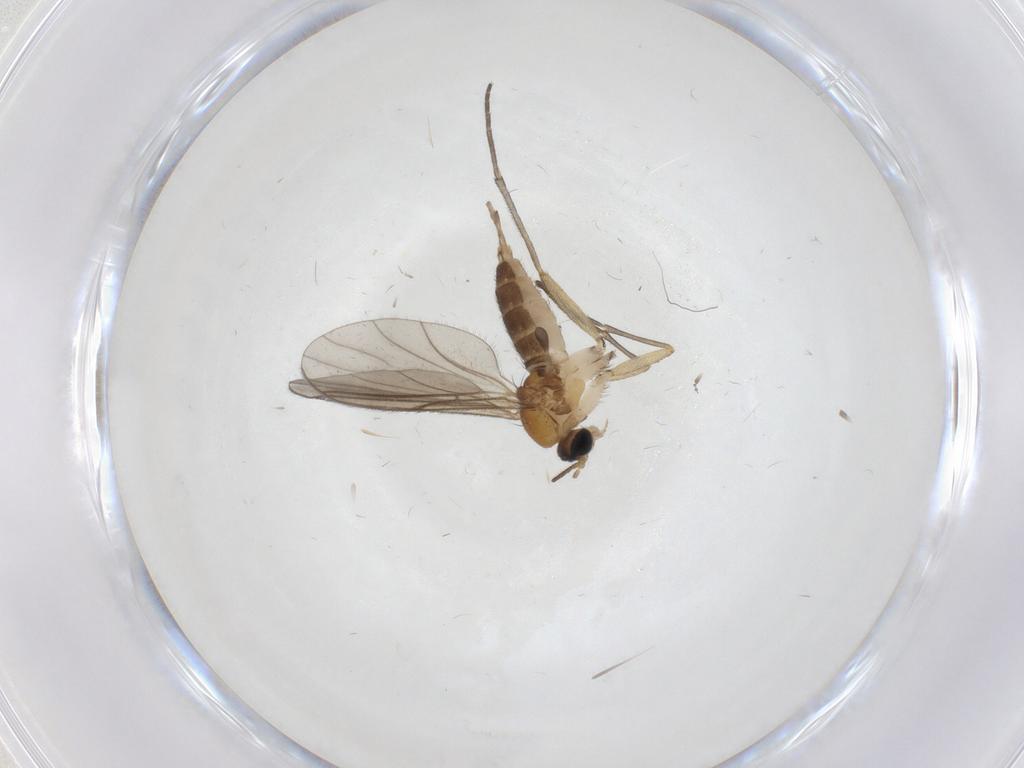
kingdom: Animalia
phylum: Arthropoda
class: Insecta
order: Diptera
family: Sciaridae
